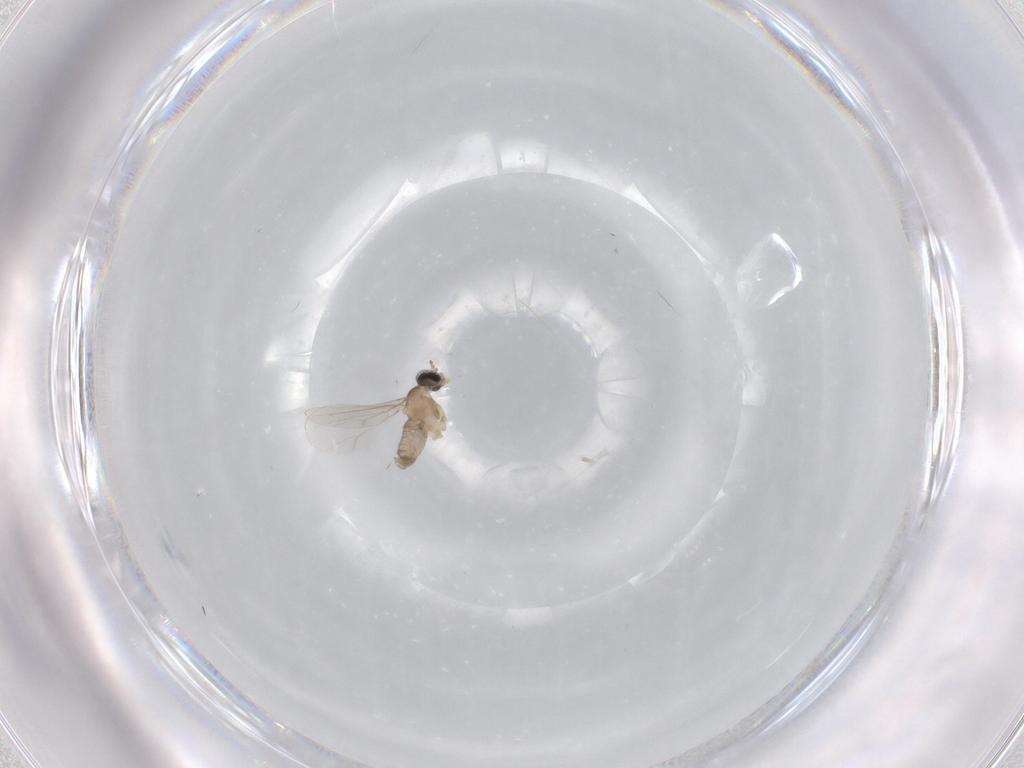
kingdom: Animalia
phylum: Arthropoda
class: Insecta
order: Diptera
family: Cecidomyiidae
